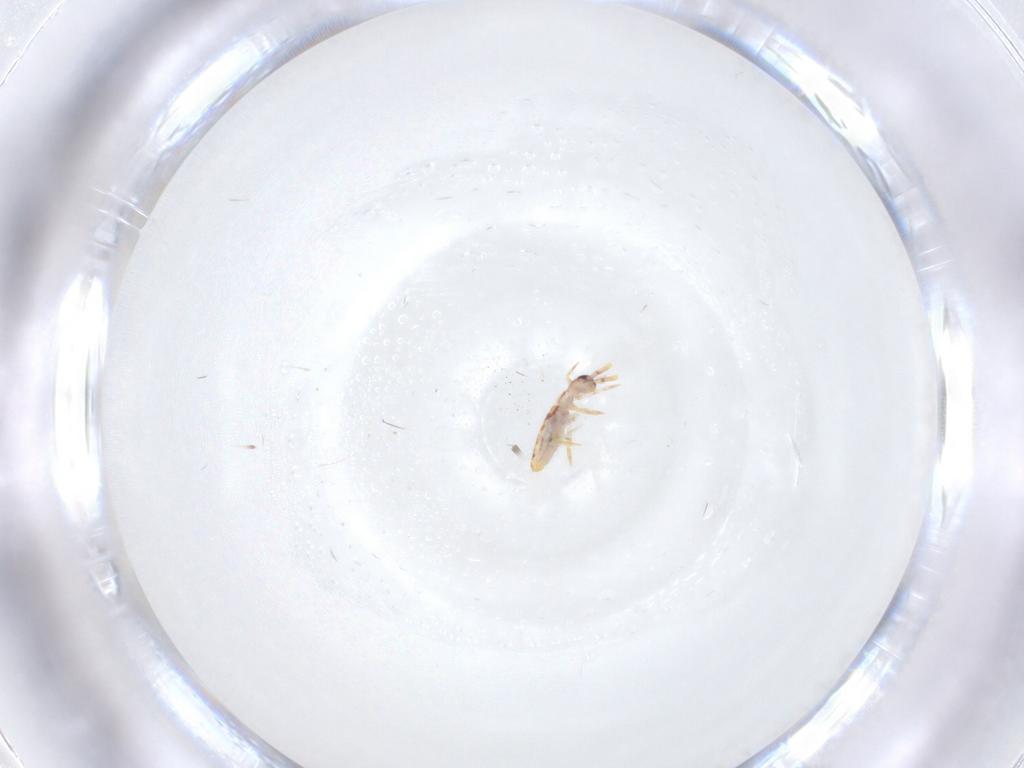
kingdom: Animalia
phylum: Arthropoda
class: Collembola
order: Entomobryomorpha
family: Entomobryidae
